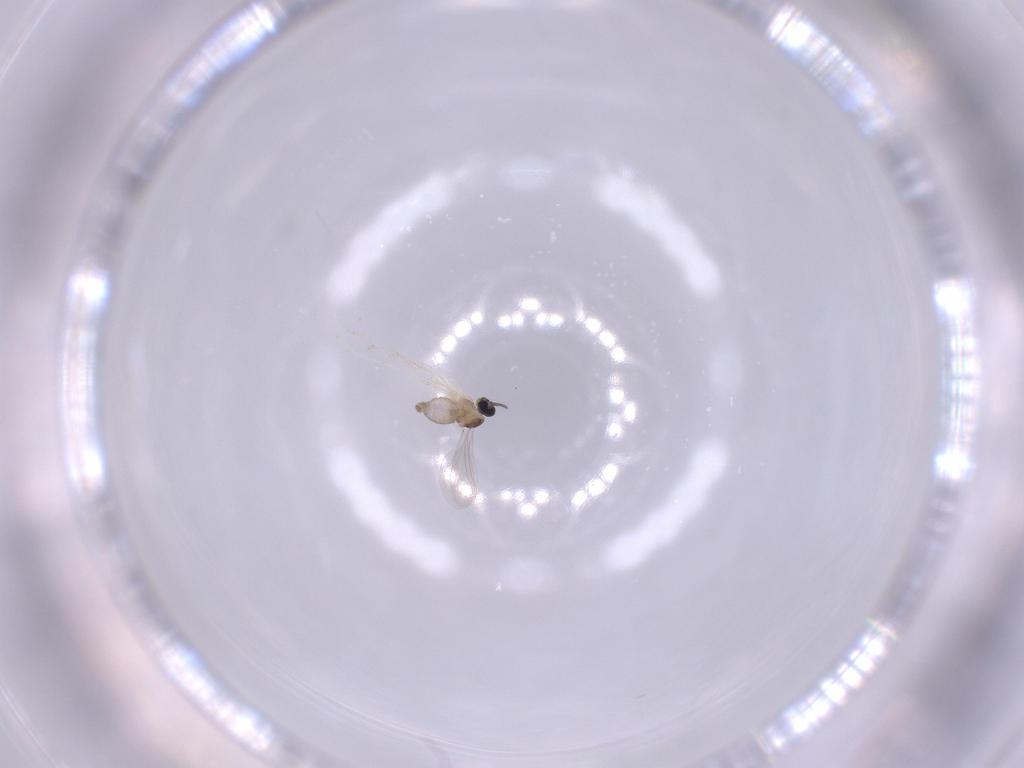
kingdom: Animalia
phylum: Arthropoda
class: Insecta
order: Diptera
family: Cecidomyiidae
